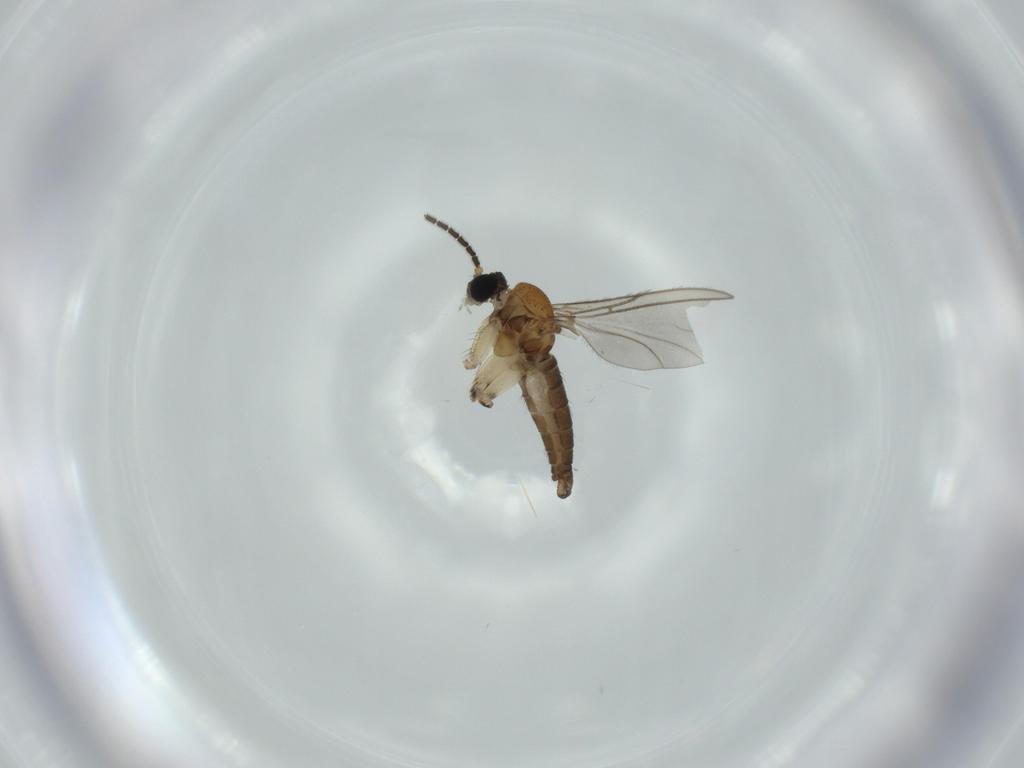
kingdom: Animalia
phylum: Arthropoda
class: Insecta
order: Diptera
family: Sciaridae
